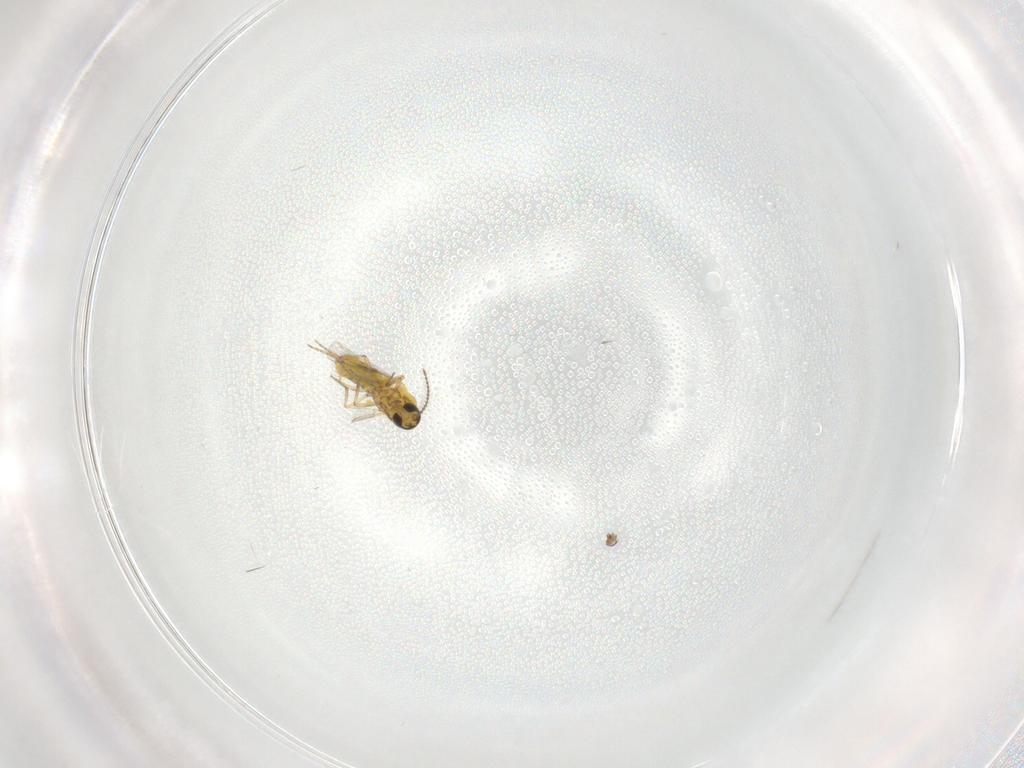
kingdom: Animalia
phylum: Arthropoda
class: Insecta
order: Diptera
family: Ceratopogonidae
